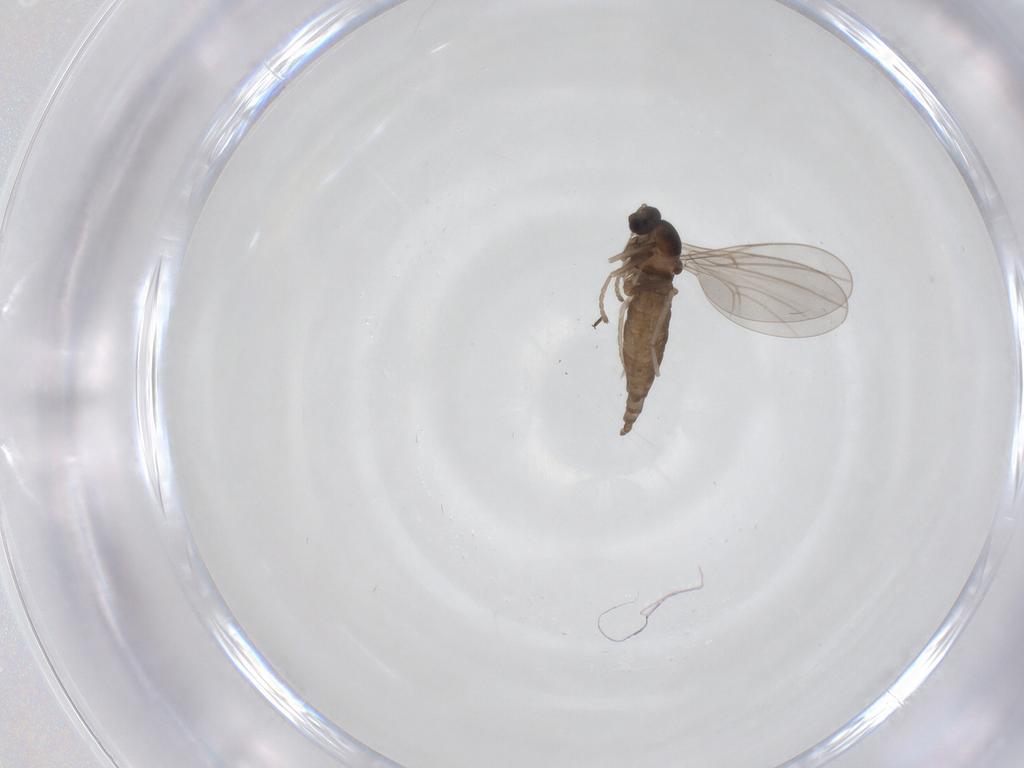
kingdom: Animalia
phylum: Arthropoda
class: Insecta
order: Diptera
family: Cecidomyiidae
